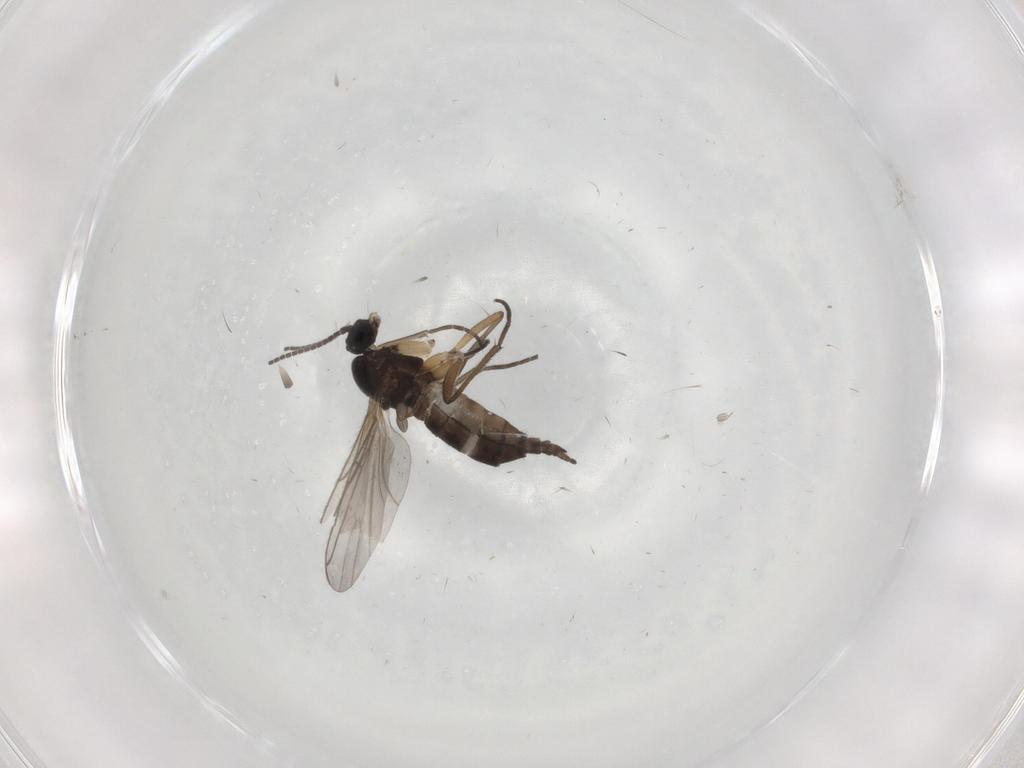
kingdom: Animalia
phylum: Arthropoda
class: Insecta
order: Diptera
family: Sciaridae
